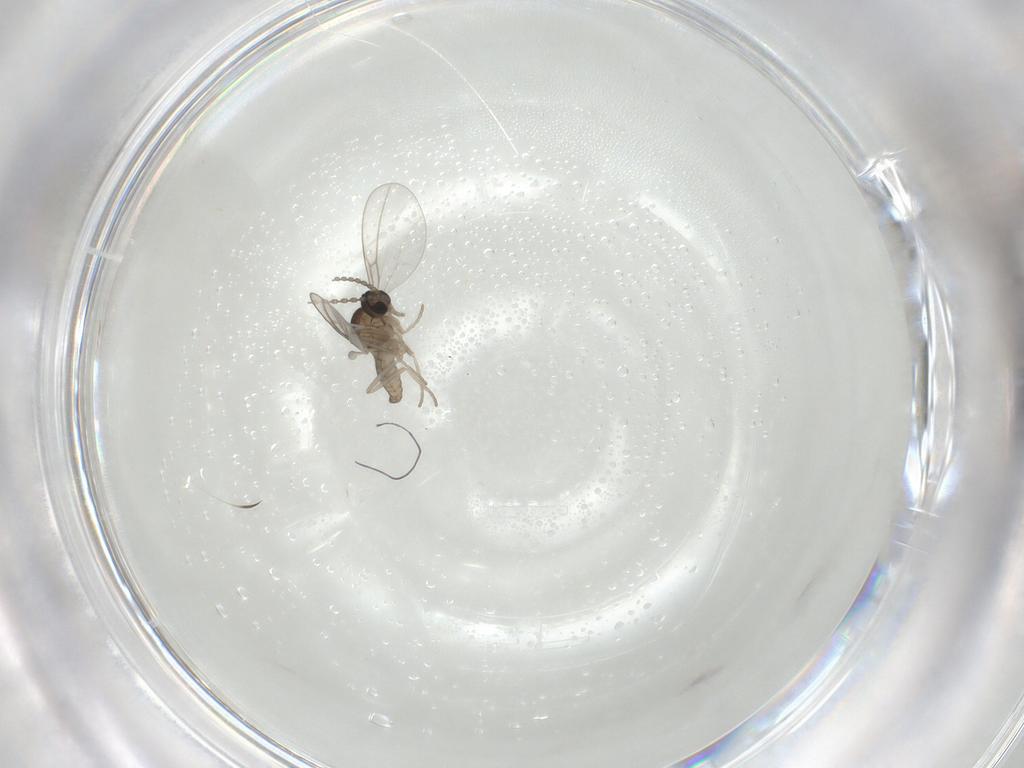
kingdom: Animalia
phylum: Arthropoda
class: Insecta
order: Diptera
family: Cecidomyiidae
